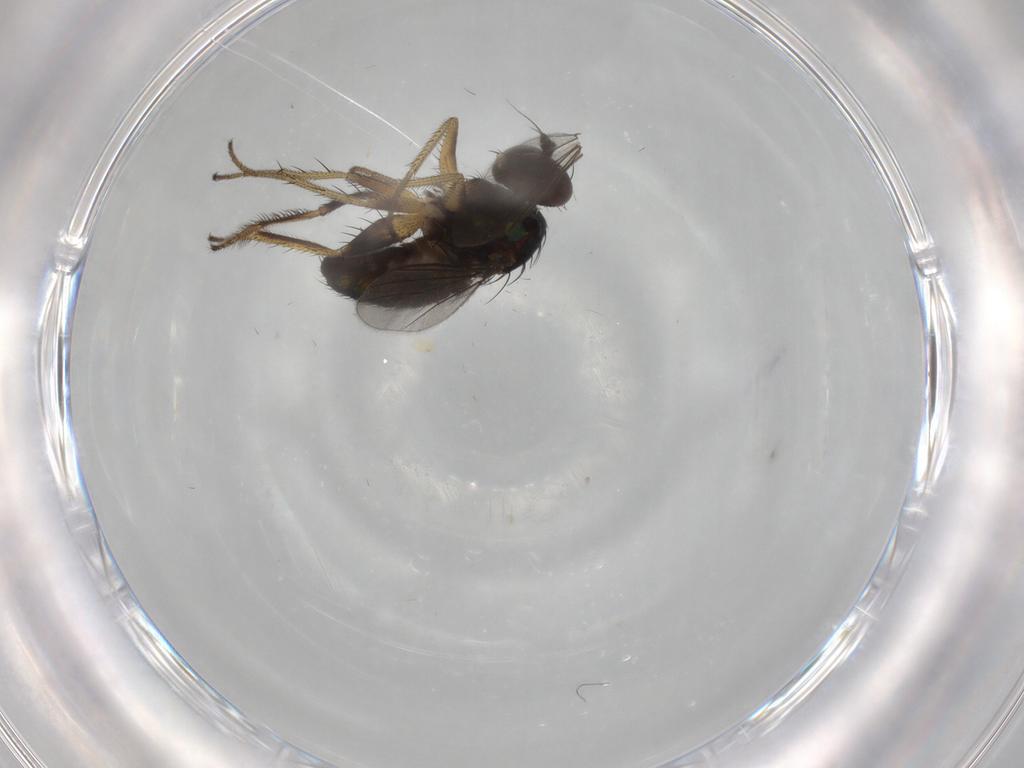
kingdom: Animalia
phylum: Arthropoda
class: Insecta
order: Diptera
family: Dolichopodidae
